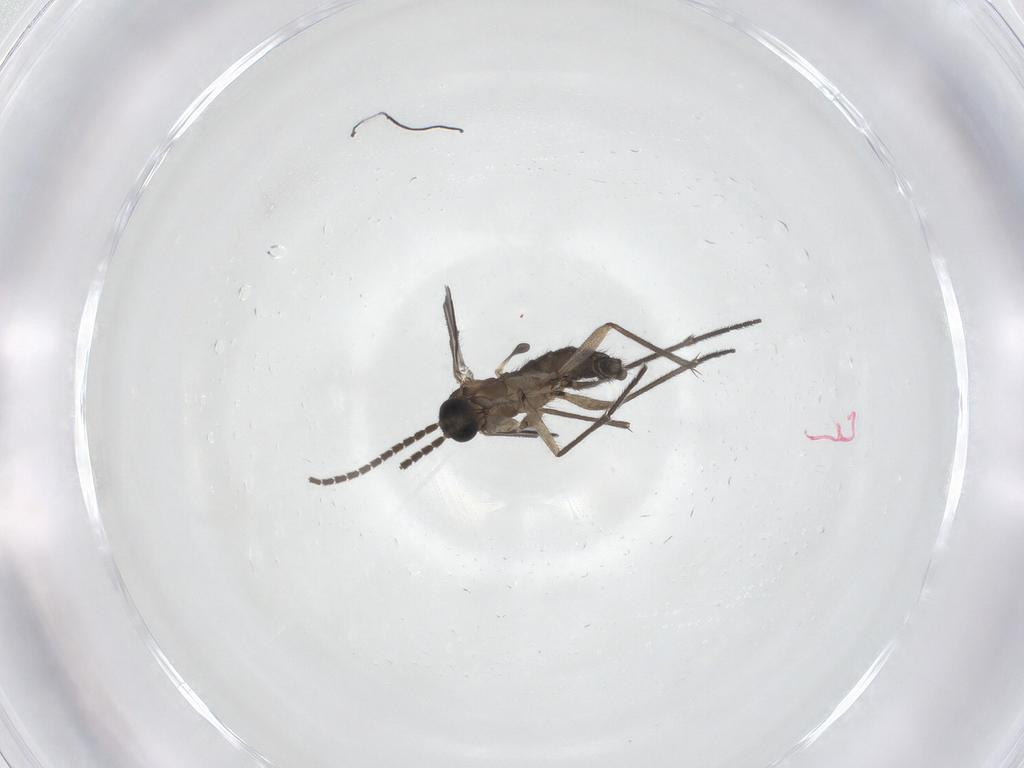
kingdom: Animalia
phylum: Arthropoda
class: Insecta
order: Diptera
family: Sciaridae
